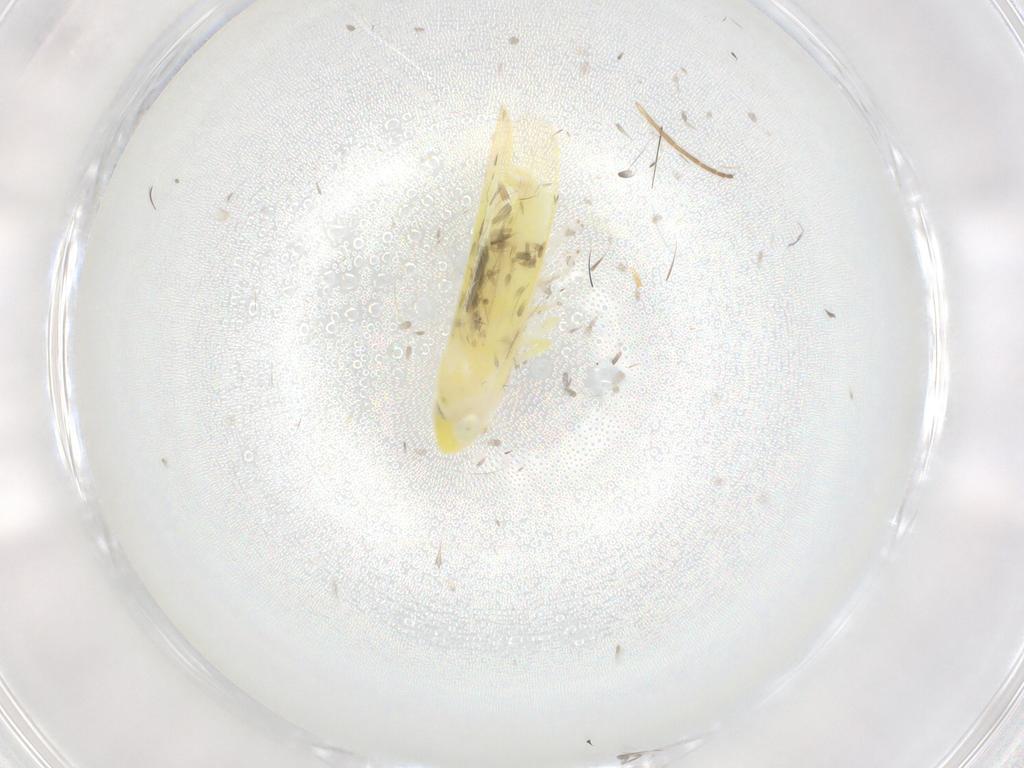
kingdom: Animalia
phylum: Arthropoda
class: Insecta
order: Hemiptera
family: Cicadellidae
